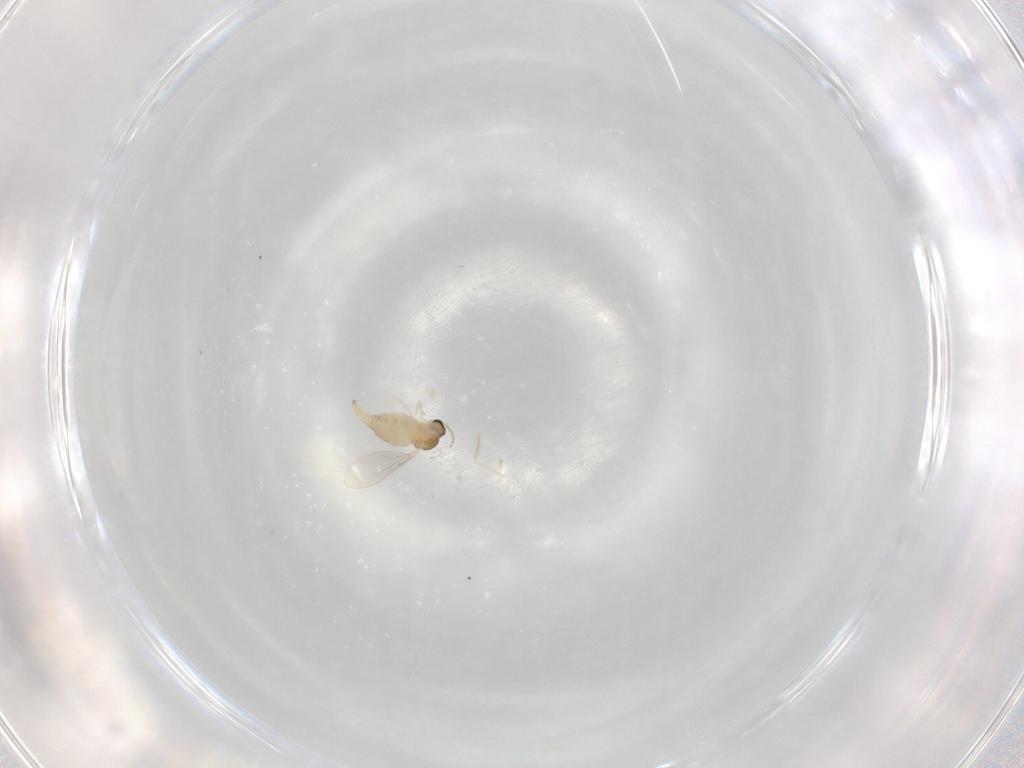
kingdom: Animalia
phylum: Arthropoda
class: Insecta
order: Diptera
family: Cecidomyiidae
